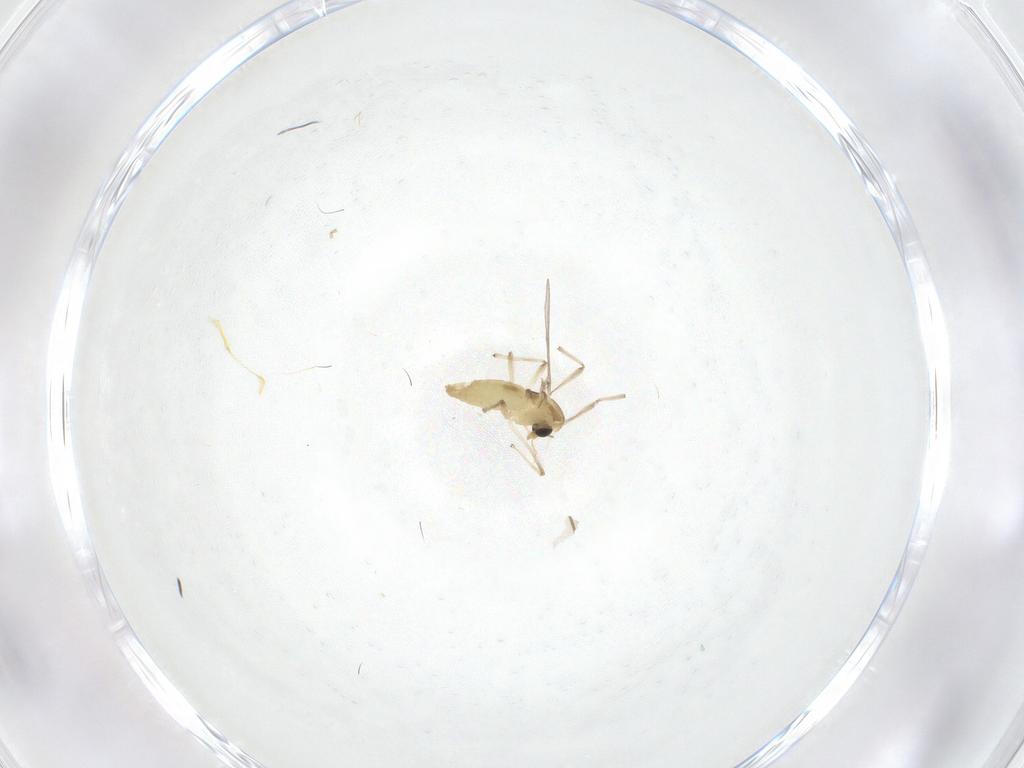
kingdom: Animalia
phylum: Arthropoda
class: Insecta
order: Diptera
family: Chironomidae
